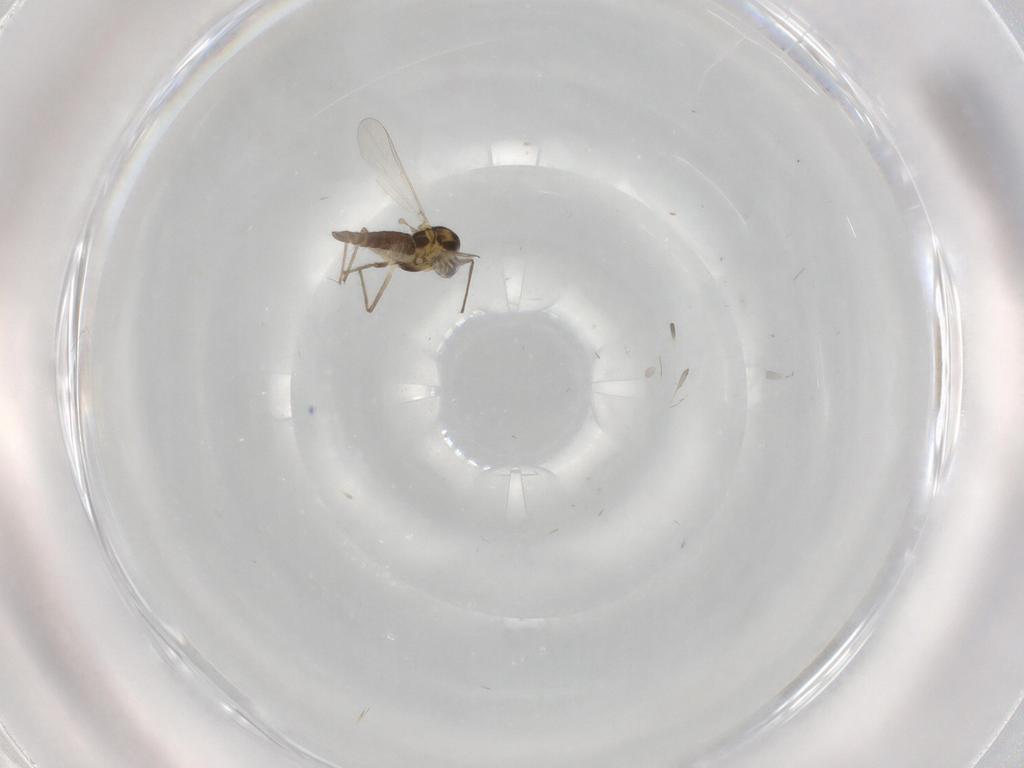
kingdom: Animalia
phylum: Arthropoda
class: Insecta
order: Diptera
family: Chironomidae
